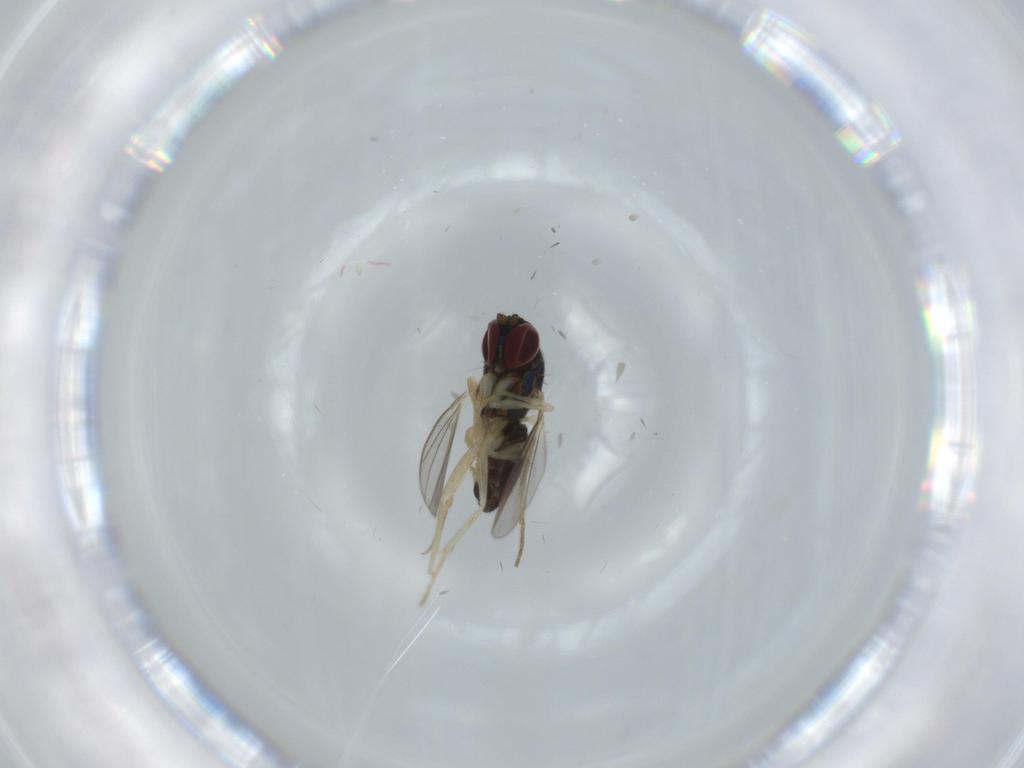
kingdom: Animalia
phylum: Arthropoda
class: Insecta
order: Diptera
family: Dolichopodidae
